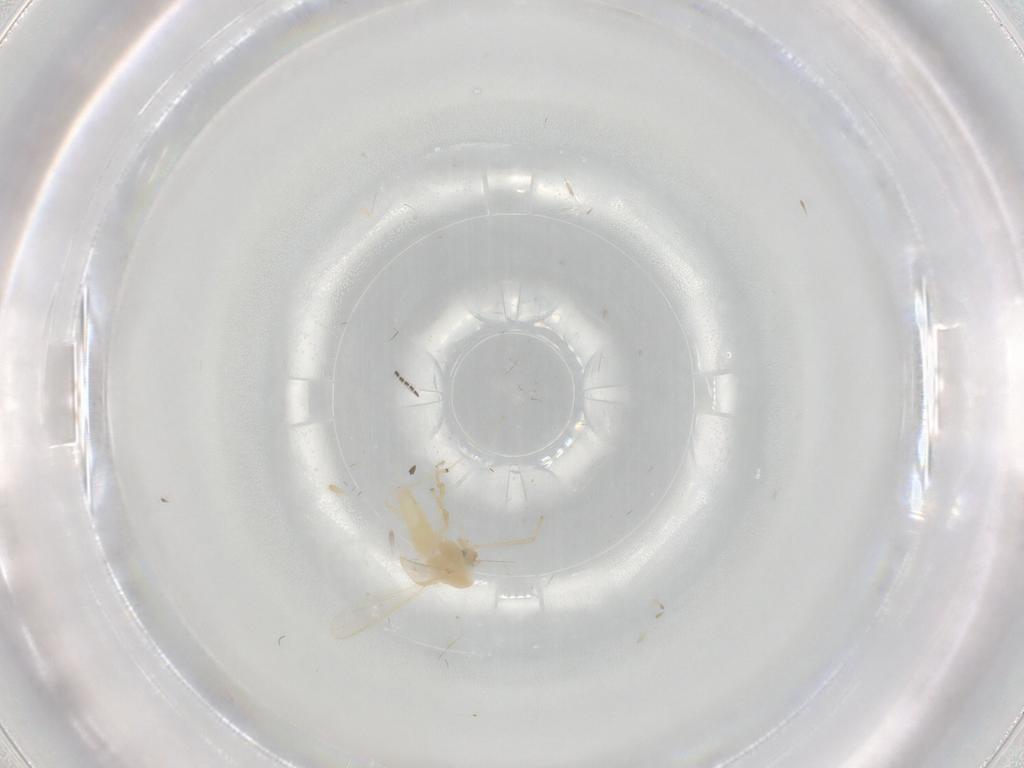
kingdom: Animalia
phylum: Arthropoda
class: Insecta
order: Diptera
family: Chironomidae
